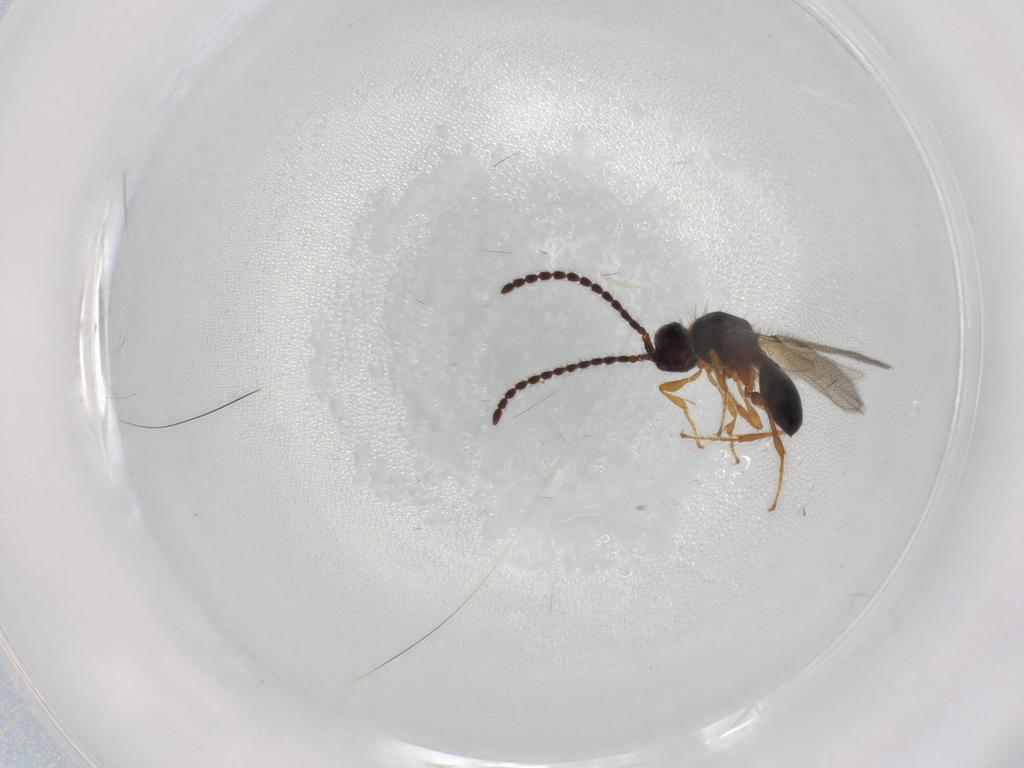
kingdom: Animalia
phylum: Arthropoda
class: Insecta
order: Hymenoptera
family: Diapriidae
